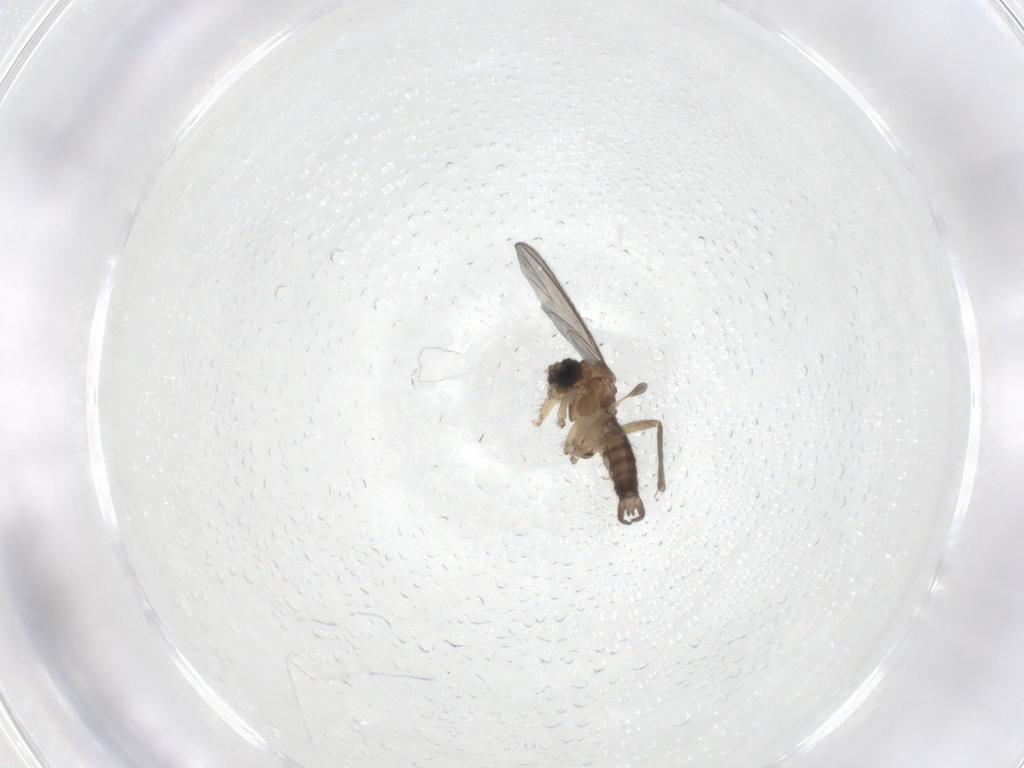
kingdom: Animalia
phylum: Arthropoda
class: Insecta
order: Diptera
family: Sciaridae
